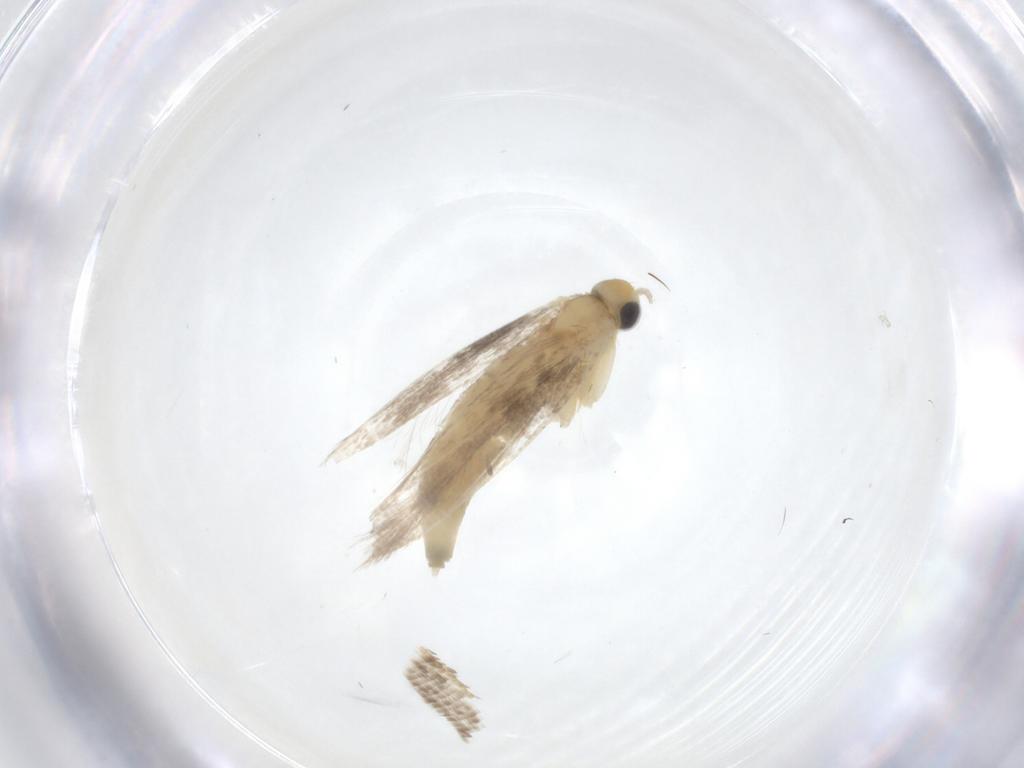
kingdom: Animalia
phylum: Arthropoda
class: Insecta
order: Lepidoptera
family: Argyresthiidae
